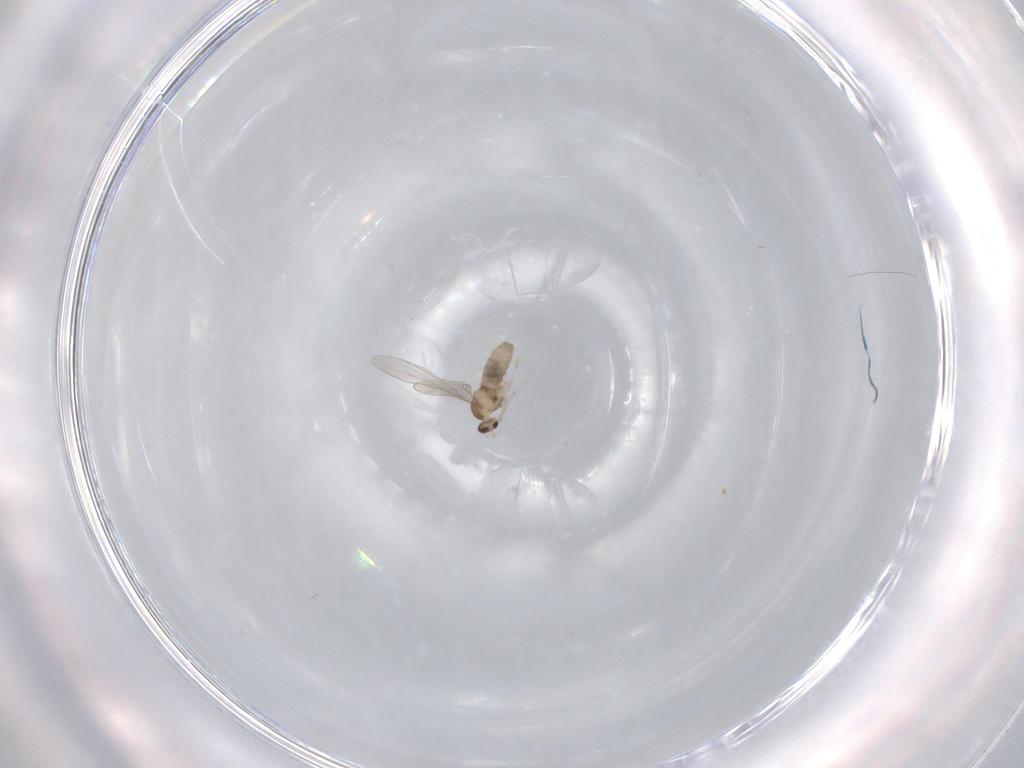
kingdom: Animalia
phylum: Arthropoda
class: Insecta
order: Diptera
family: Cecidomyiidae
